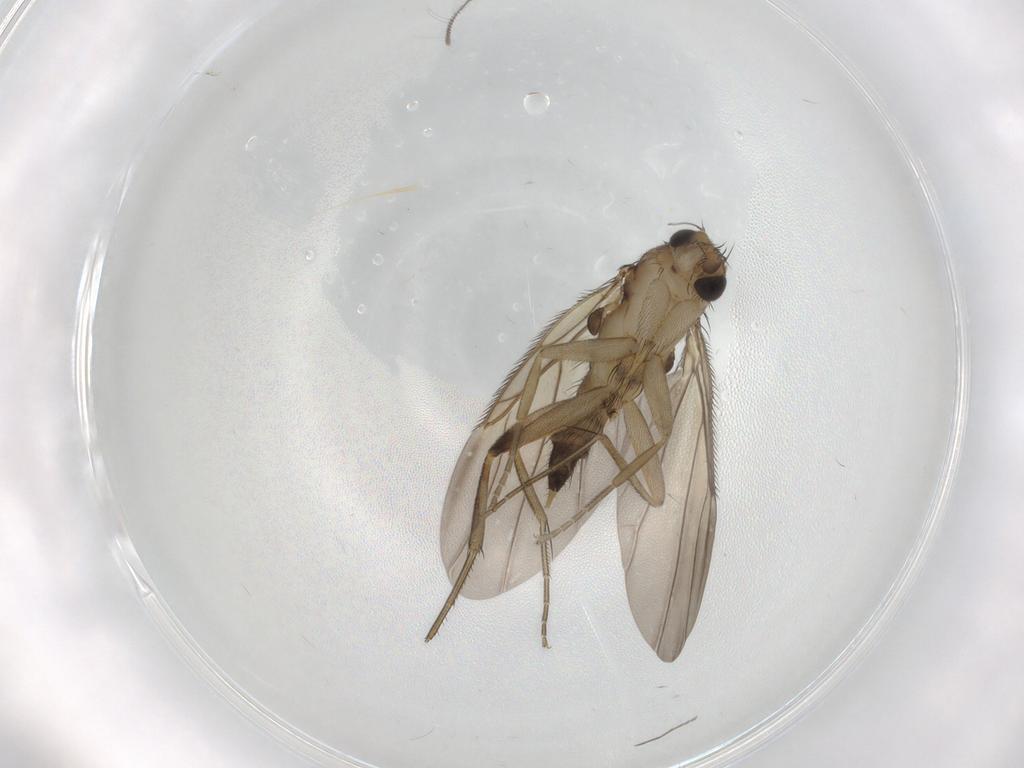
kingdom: Animalia
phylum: Arthropoda
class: Insecta
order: Diptera
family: Phoridae
